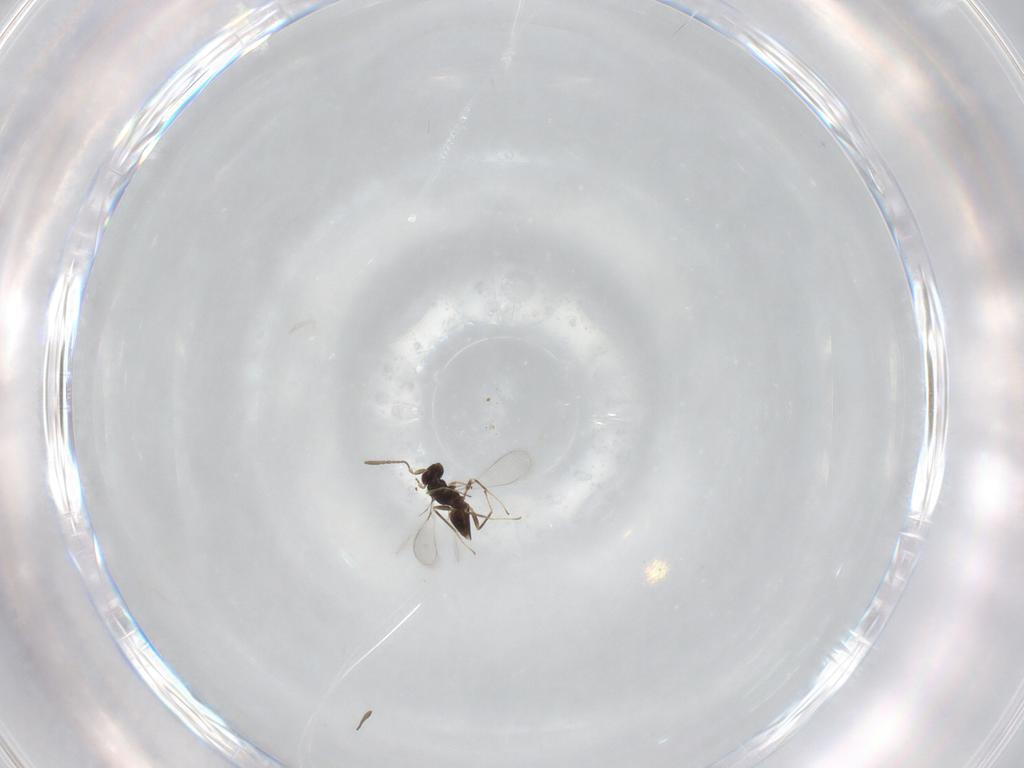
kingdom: Animalia
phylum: Arthropoda
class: Insecta
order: Hymenoptera
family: Mymaridae
